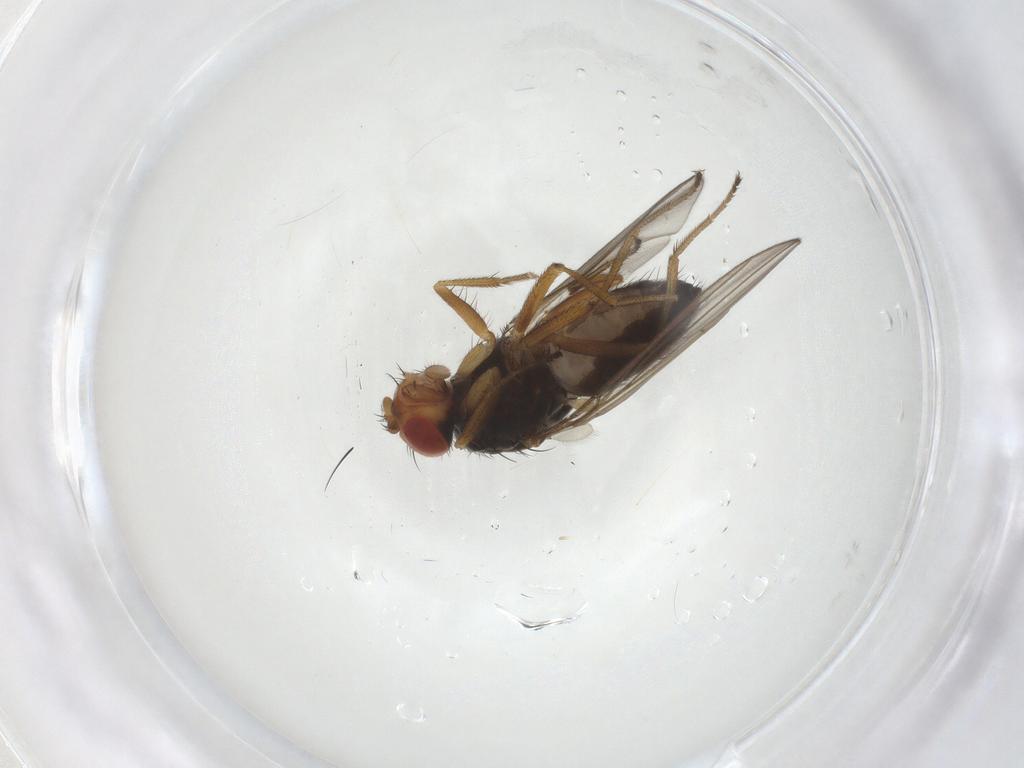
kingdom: Animalia
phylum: Arthropoda
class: Insecta
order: Diptera
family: Drosophilidae
